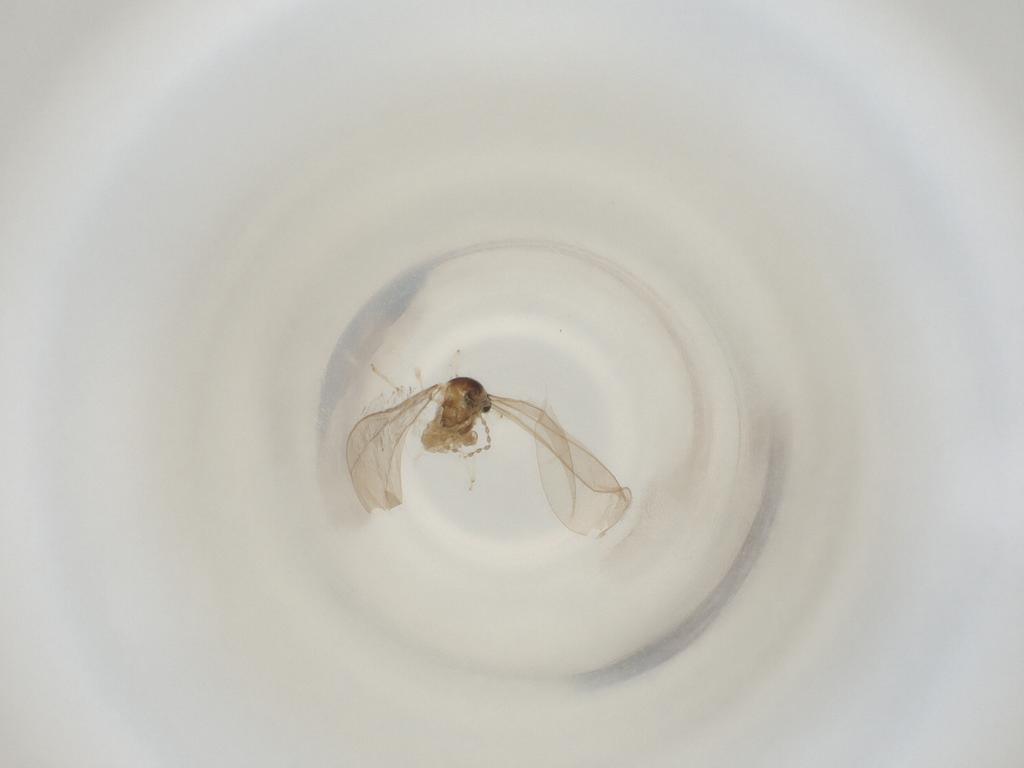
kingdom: Animalia
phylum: Arthropoda
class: Insecta
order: Diptera
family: Cecidomyiidae
